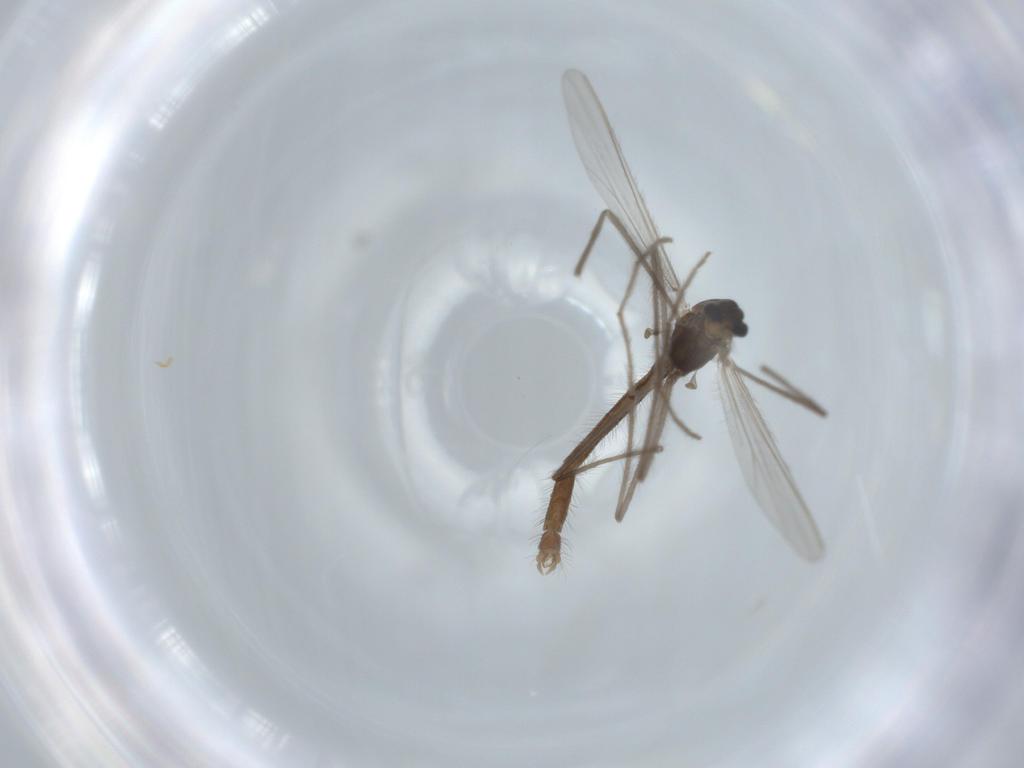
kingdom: Animalia
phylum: Arthropoda
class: Insecta
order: Diptera
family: Chironomidae
